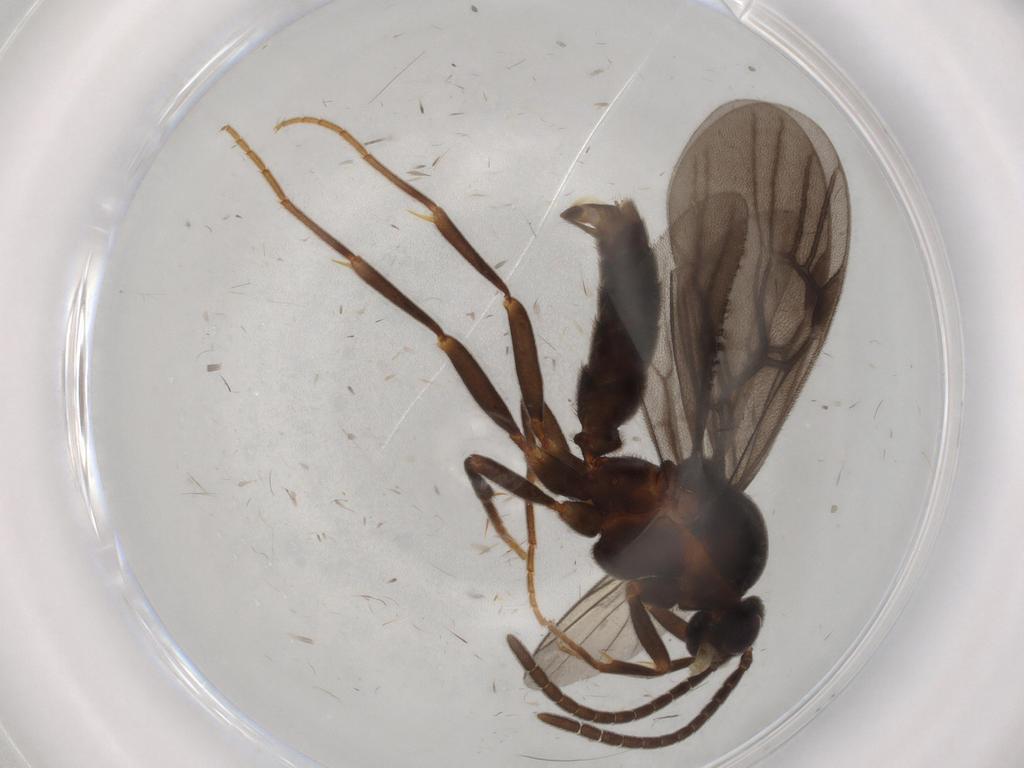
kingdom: Animalia
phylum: Arthropoda
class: Insecta
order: Hymenoptera
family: Formicidae
